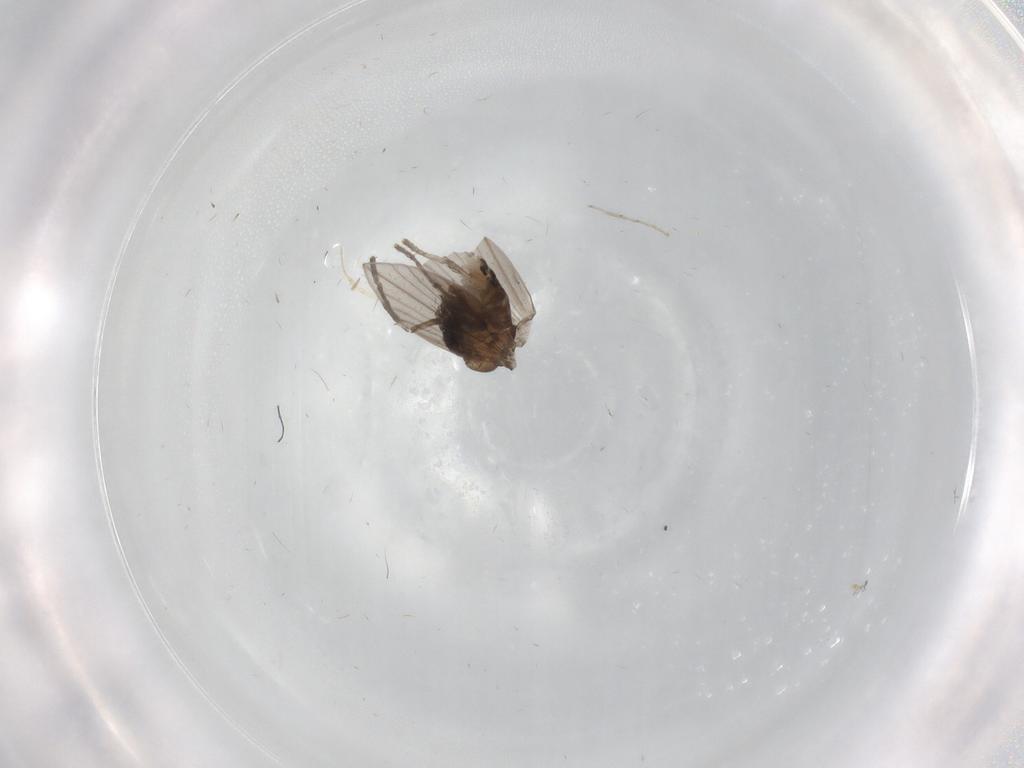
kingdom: Animalia
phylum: Arthropoda
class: Insecta
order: Diptera
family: Psychodidae
